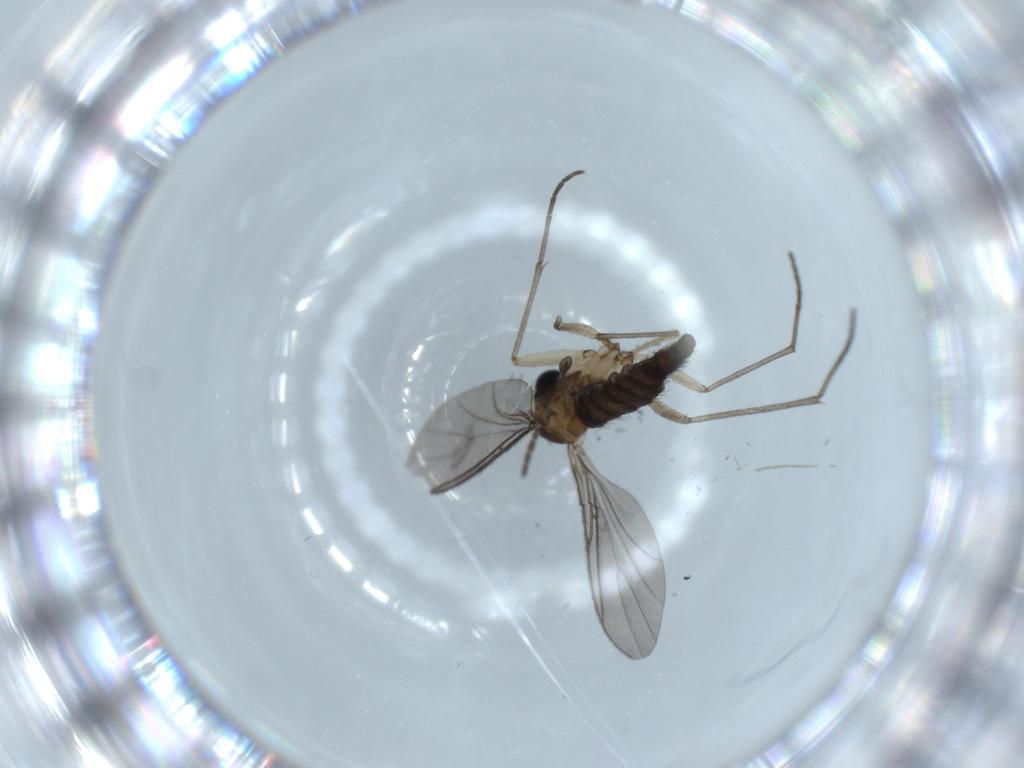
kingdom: Animalia
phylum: Arthropoda
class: Insecta
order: Diptera
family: Sciaridae
